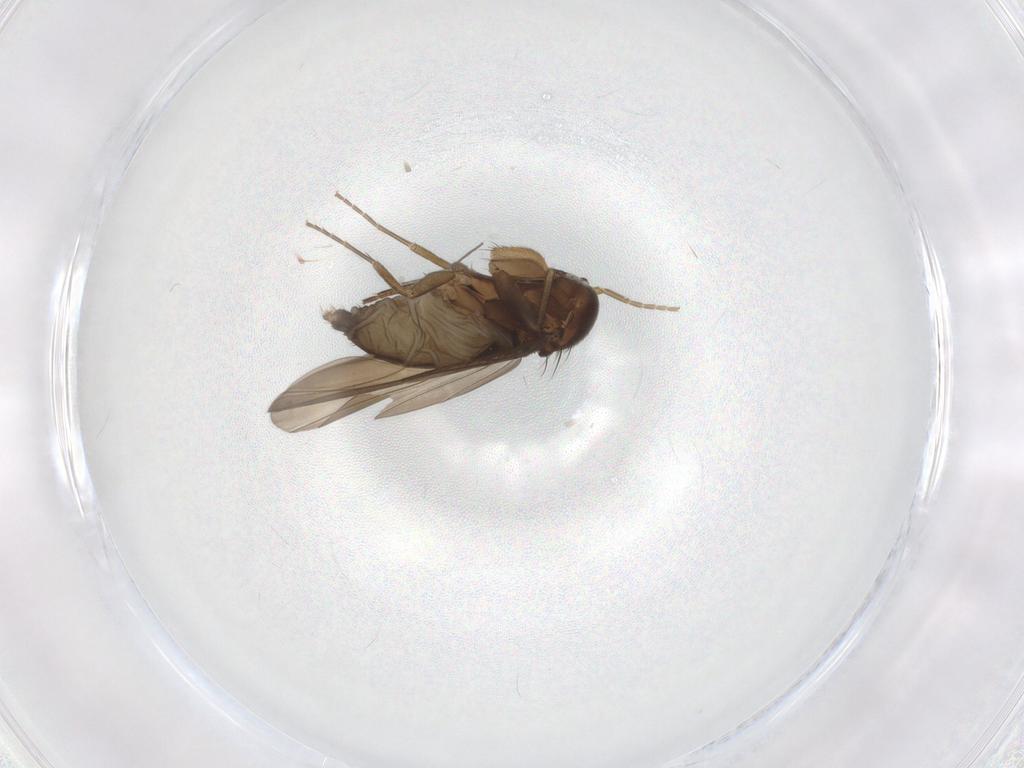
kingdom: Animalia
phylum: Arthropoda
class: Insecta
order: Diptera
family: Phoridae
